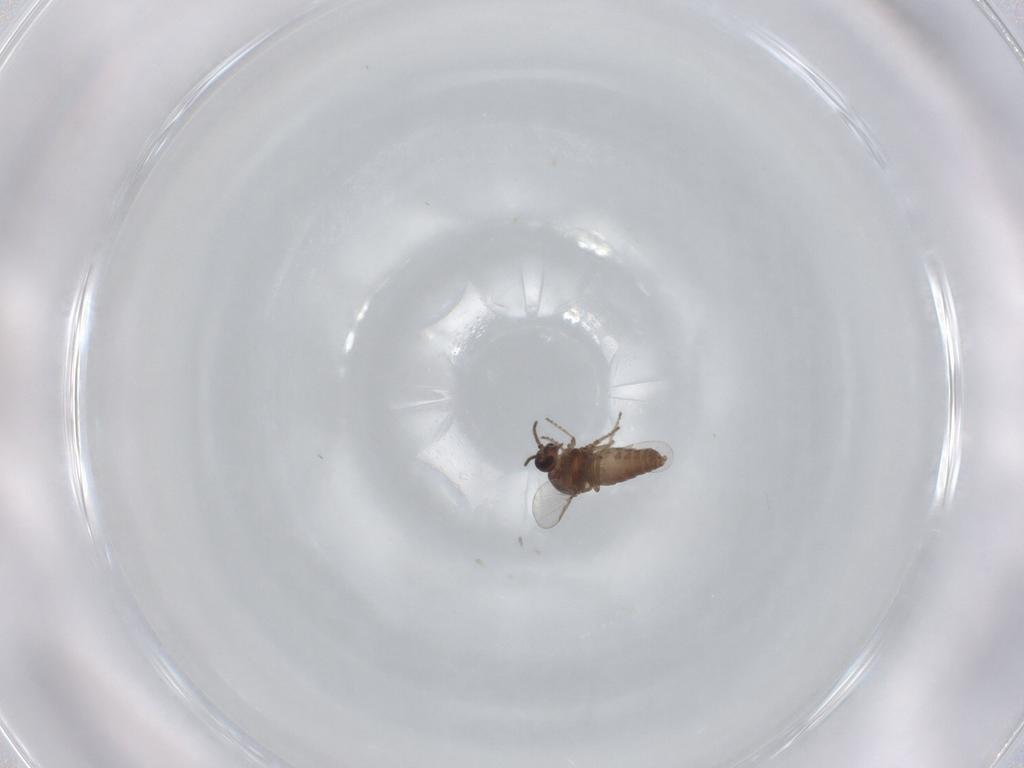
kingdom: Animalia
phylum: Arthropoda
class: Insecta
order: Diptera
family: Ceratopogonidae
